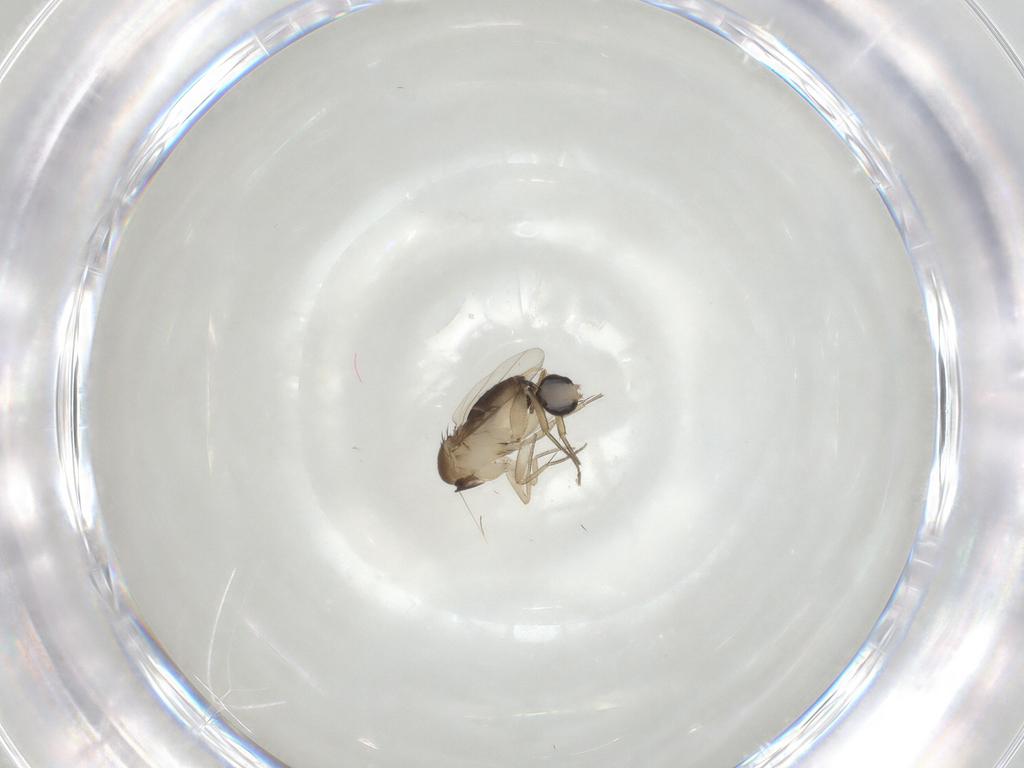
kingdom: Animalia
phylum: Arthropoda
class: Insecta
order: Diptera
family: Phoridae
